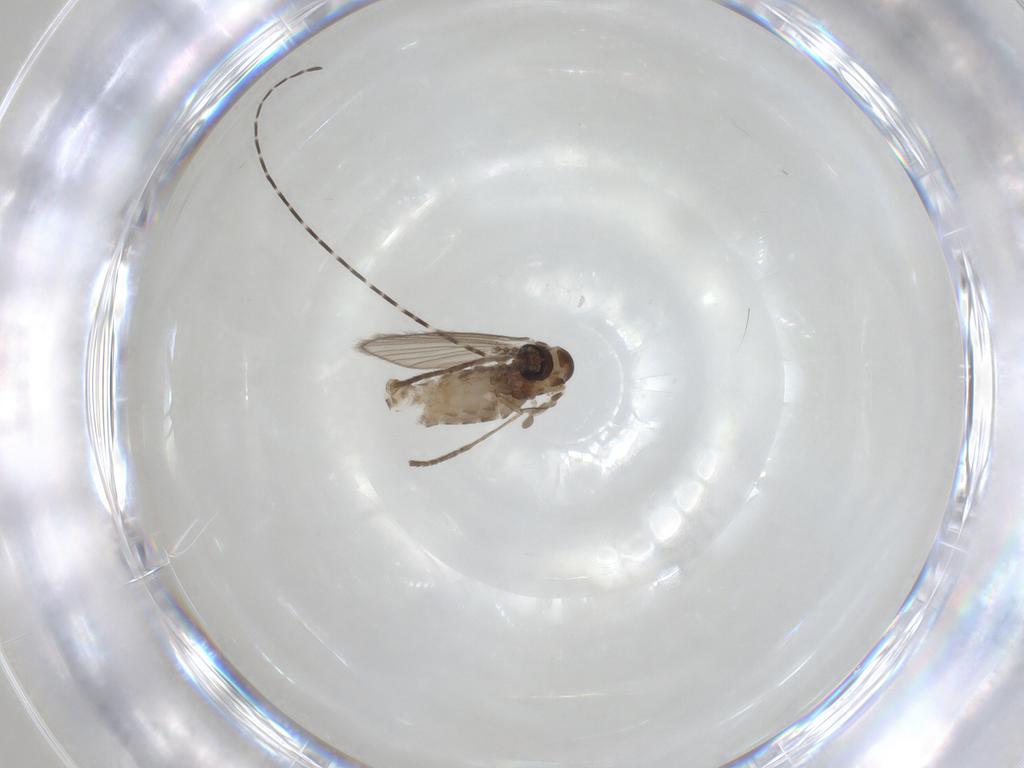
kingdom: Animalia
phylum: Arthropoda
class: Insecta
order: Diptera
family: Psychodidae
